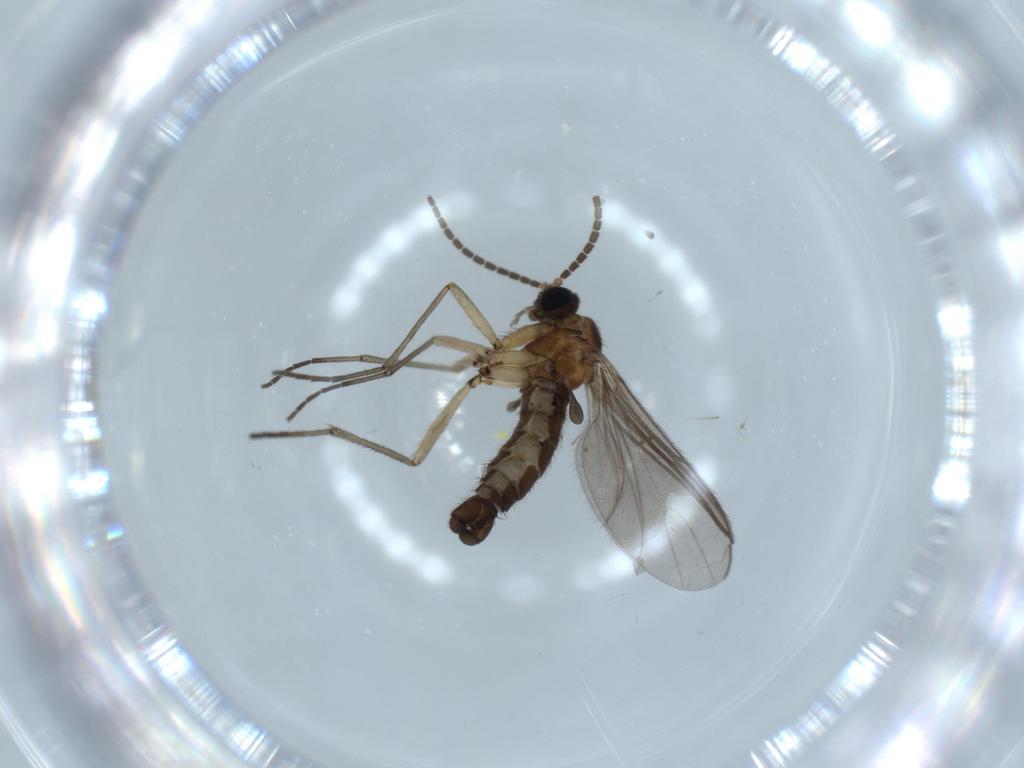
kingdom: Animalia
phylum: Arthropoda
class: Insecta
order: Diptera
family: Sciaridae
